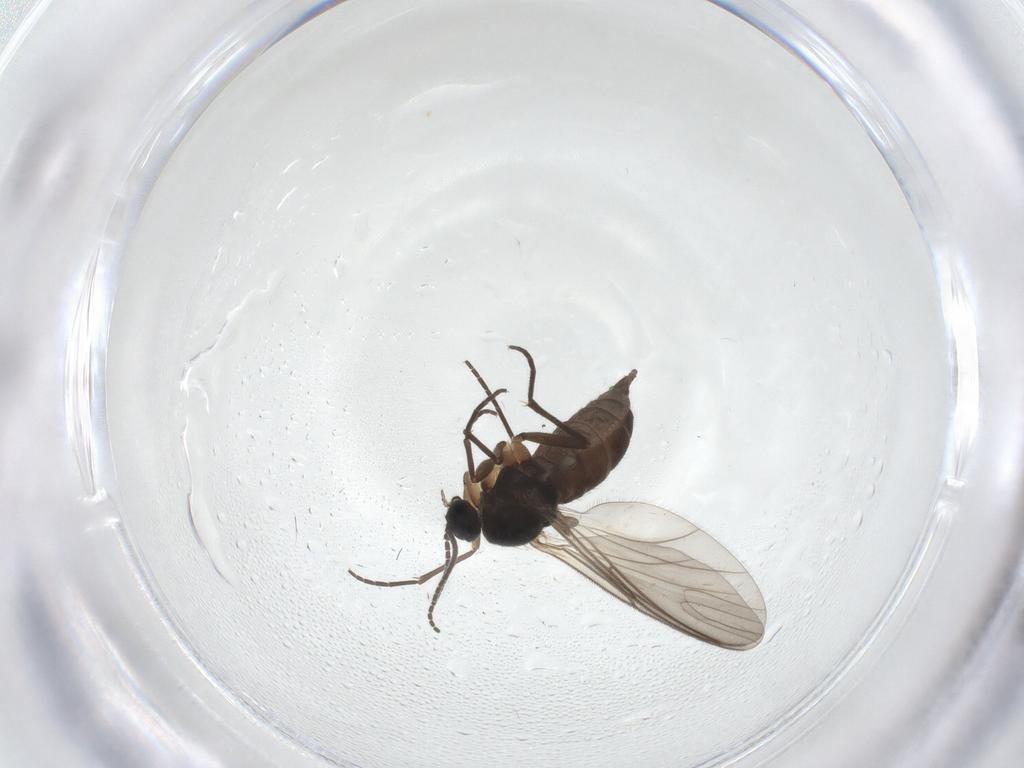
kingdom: Animalia
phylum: Arthropoda
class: Insecta
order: Diptera
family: Sciaridae
